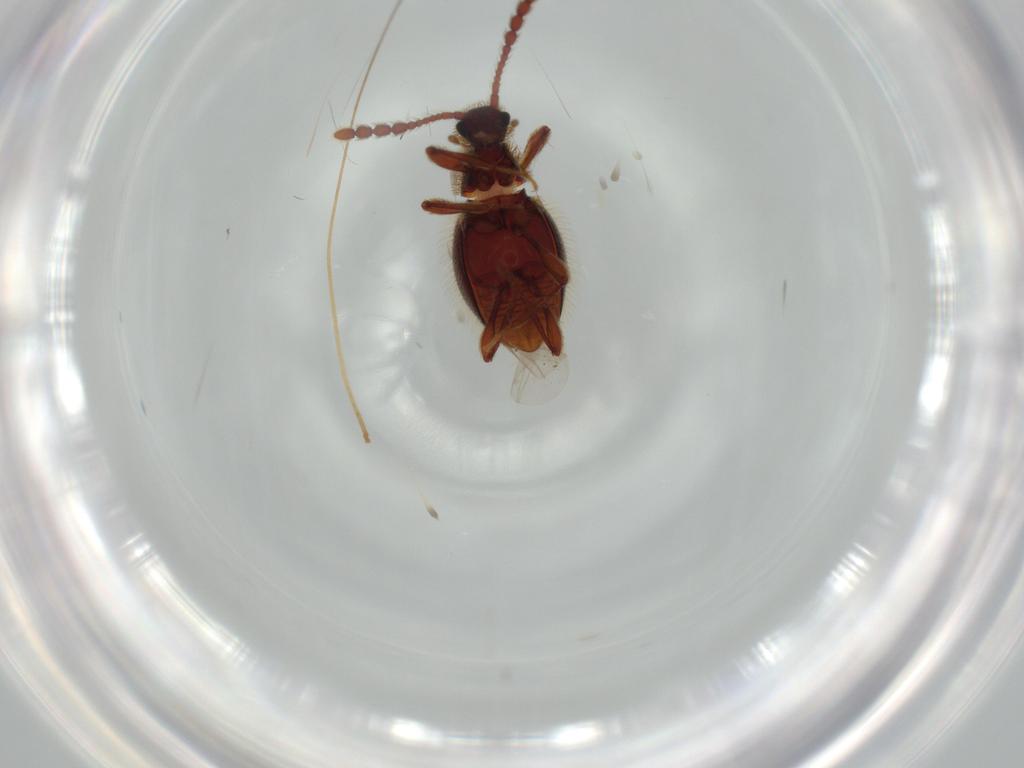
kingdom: Animalia
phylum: Arthropoda
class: Insecta
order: Coleoptera
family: Staphylinidae
